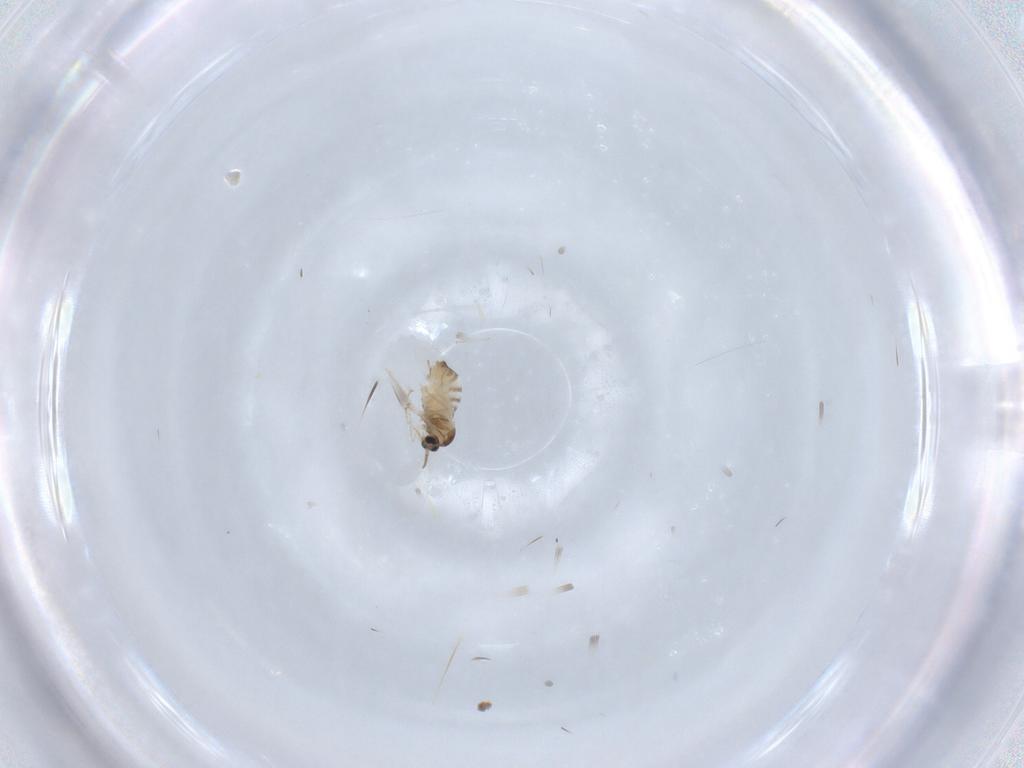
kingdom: Animalia
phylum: Arthropoda
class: Insecta
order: Diptera
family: Cecidomyiidae
